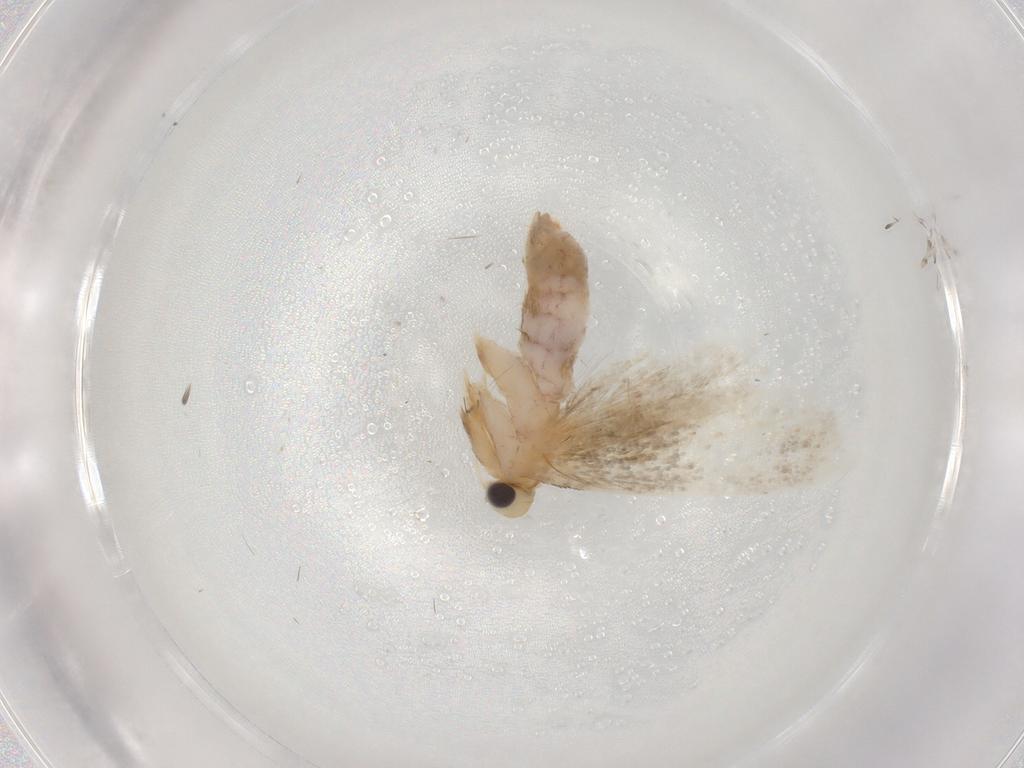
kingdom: Animalia
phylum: Arthropoda
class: Insecta
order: Lepidoptera
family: Dryadaulidae
